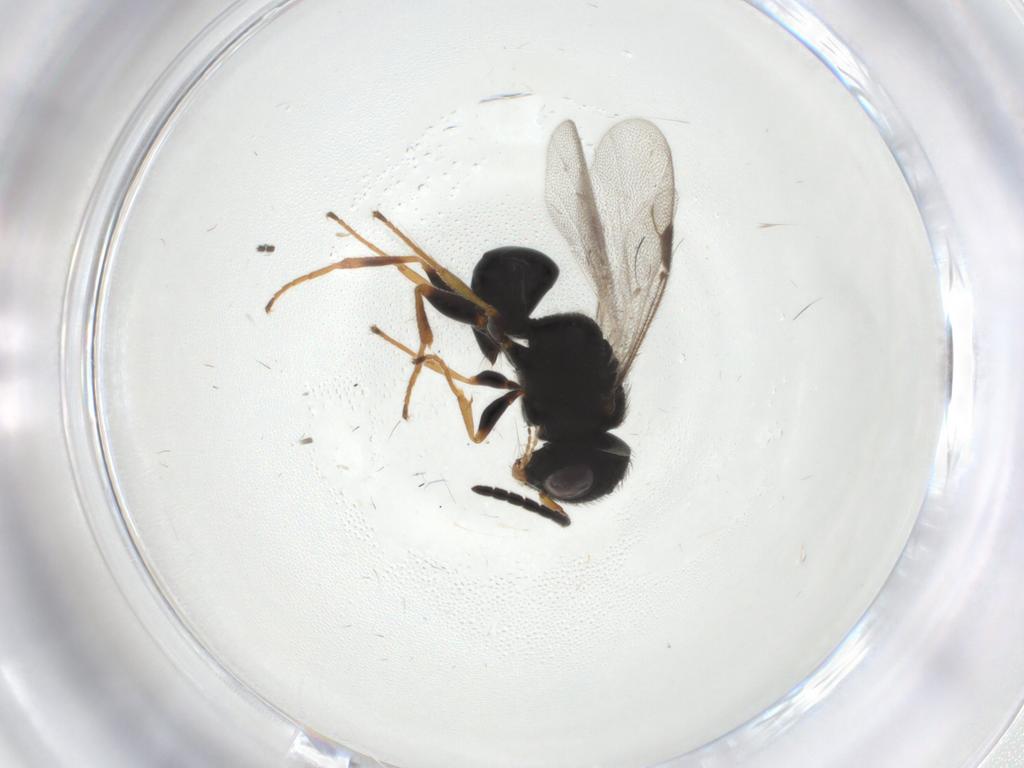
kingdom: Animalia
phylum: Arthropoda
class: Insecta
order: Hymenoptera
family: Dryinidae
